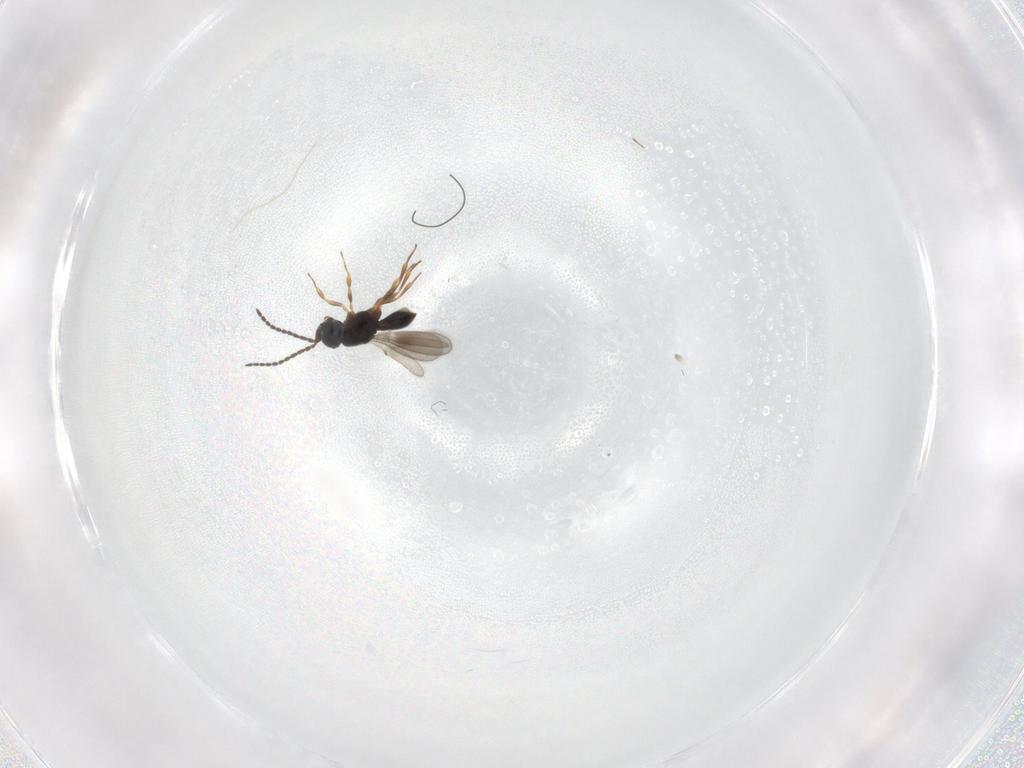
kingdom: Animalia
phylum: Arthropoda
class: Insecta
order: Hymenoptera
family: Scelionidae
